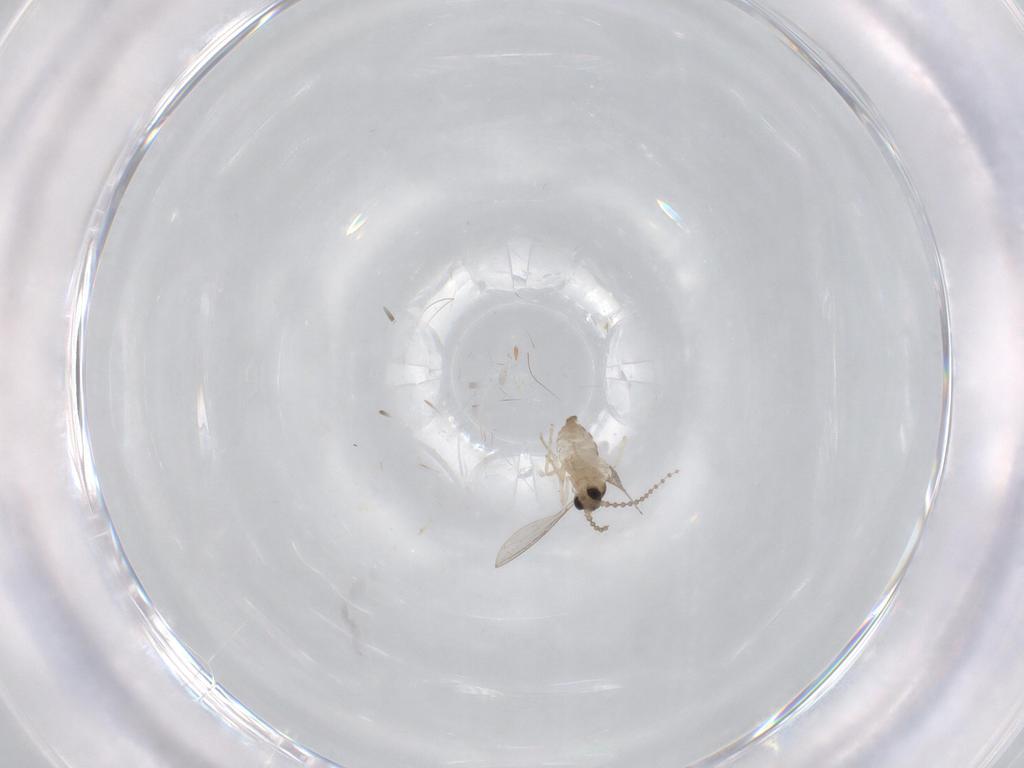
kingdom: Animalia
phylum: Arthropoda
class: Insecta
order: Diptera
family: Cecidomyiidae
